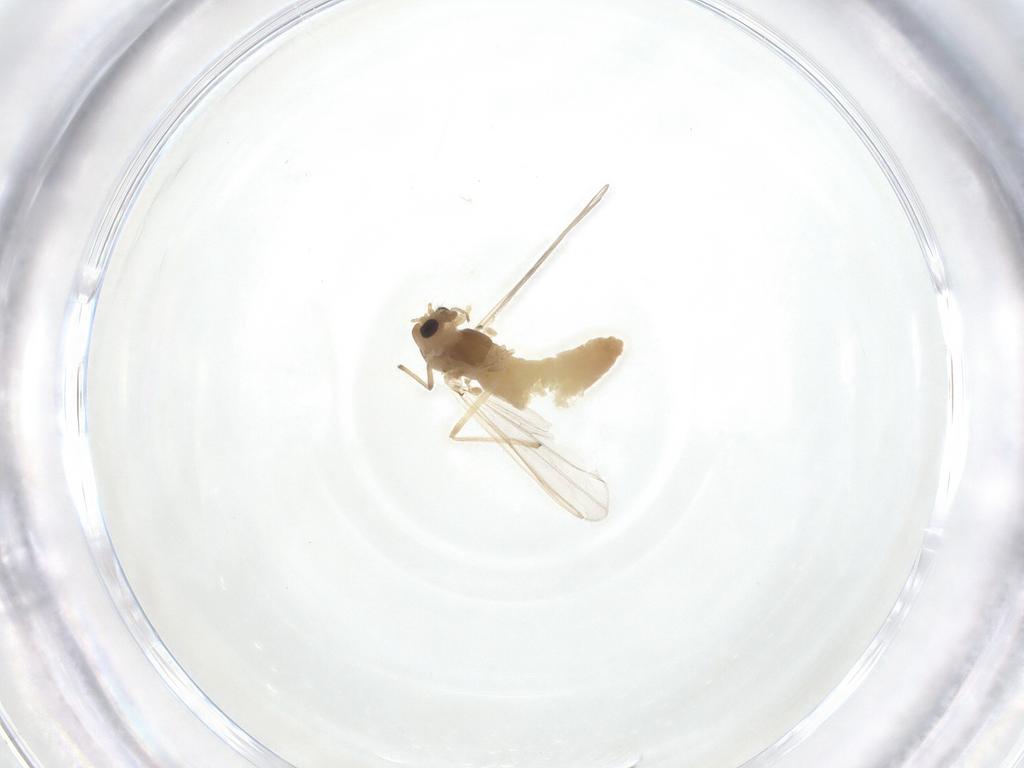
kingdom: Animalia
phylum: Arthropoda
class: Insecta
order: Diptera
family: Chironomidae
